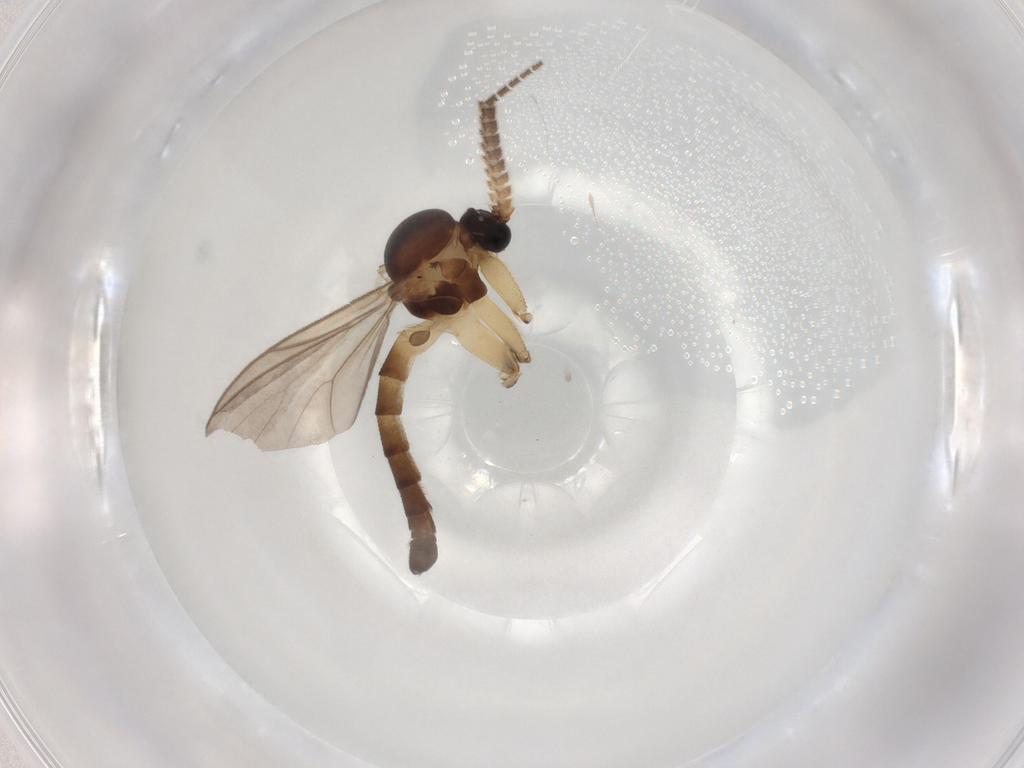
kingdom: Animalia
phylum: Arthropoda
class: Insecta
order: Diptera
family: Mycetophilidae
